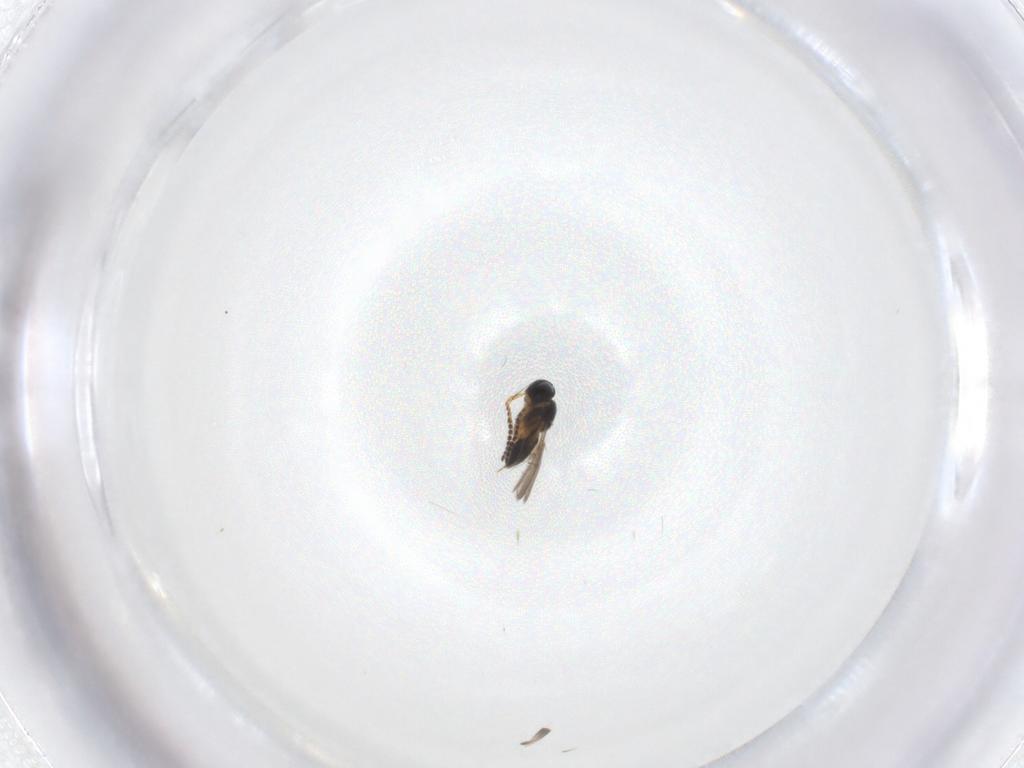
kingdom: Animalia
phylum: Arthropoda
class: Insecta
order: Hymenoptera
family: Scelionidae
